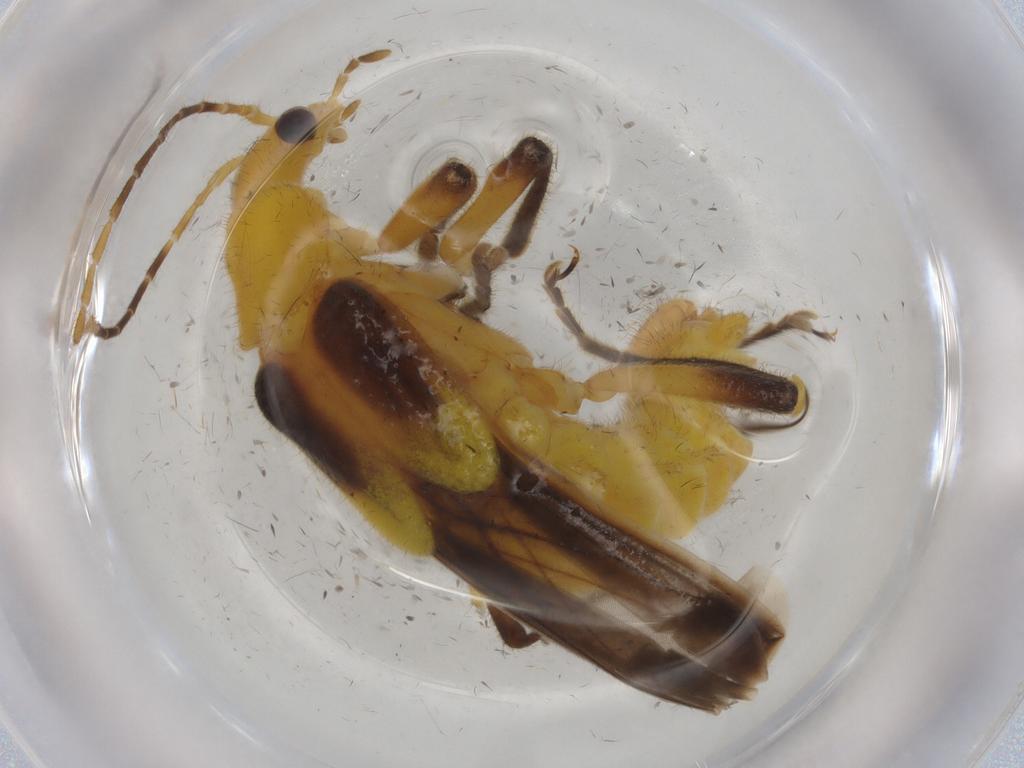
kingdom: Animalia
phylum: Arthropoda
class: Insecta
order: Coleoptera
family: Cantharidae
